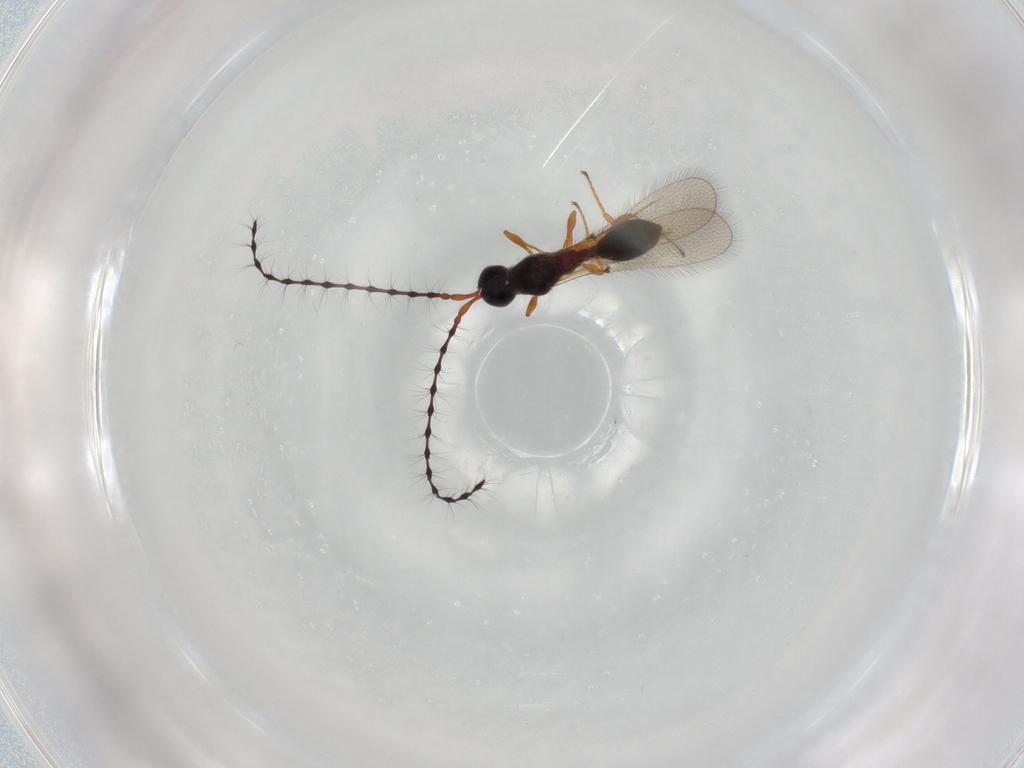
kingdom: Animalia
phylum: Arthropoda
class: Insecta
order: Hymenoptera
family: Diapriidae
